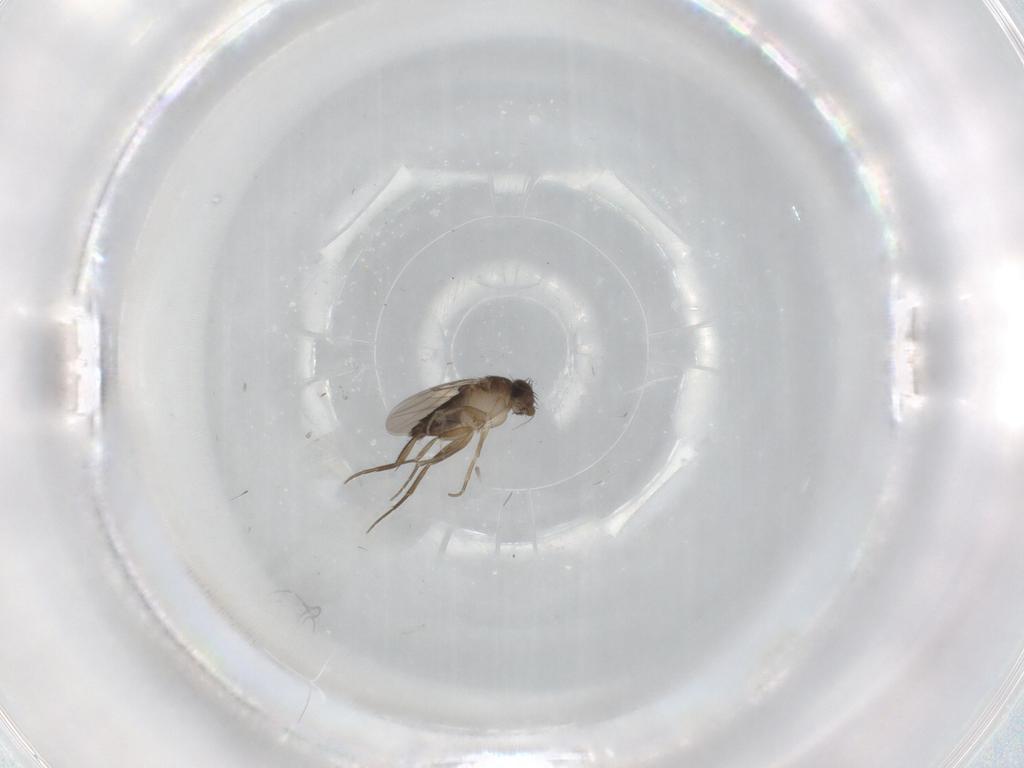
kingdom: Animalia
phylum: Arthropoda
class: Insecta
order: Diptera
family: Phoridae
